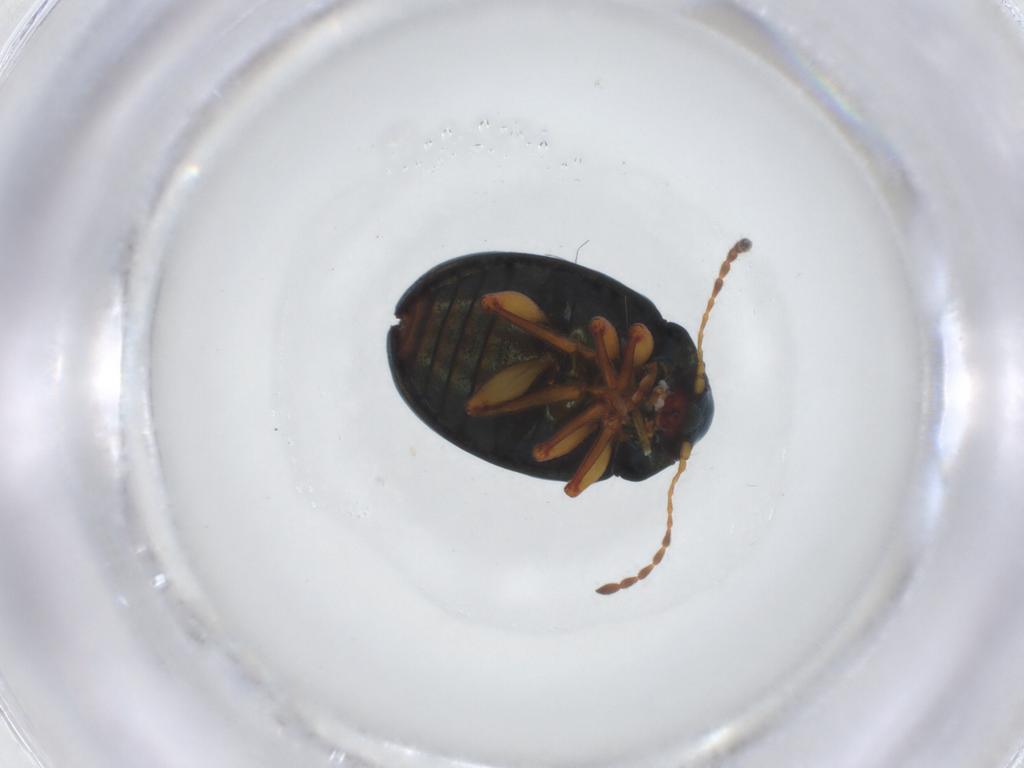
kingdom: Animalia
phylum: Arthropoda
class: Insecta
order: Coleoptera
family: Chrysomelidae
